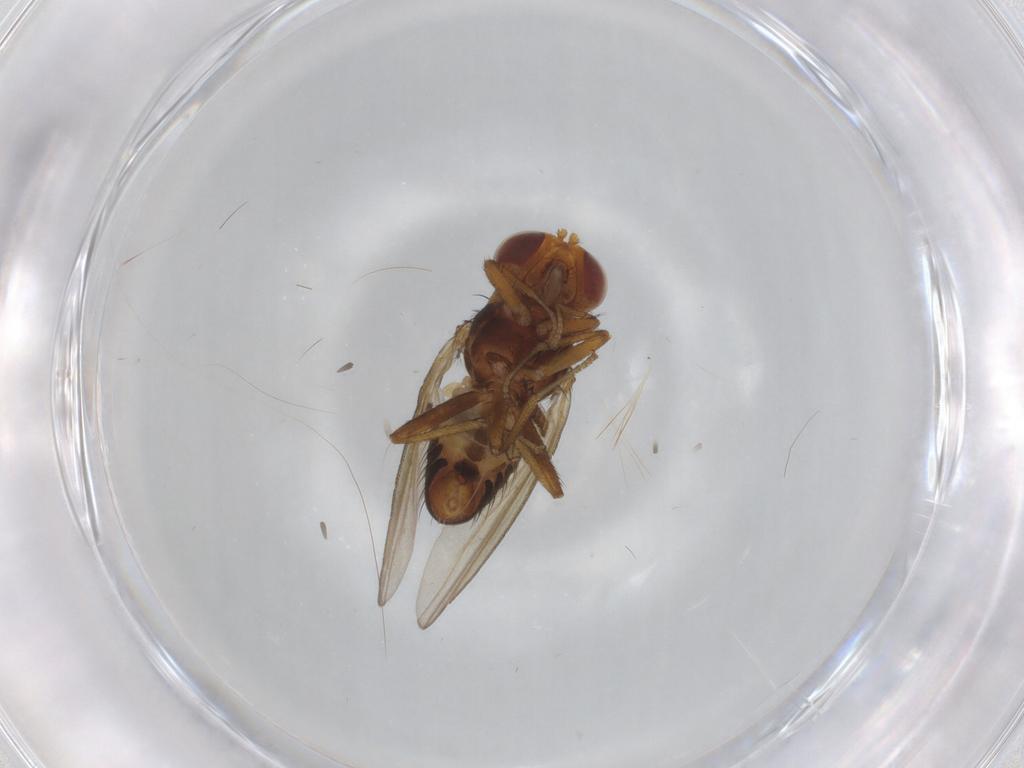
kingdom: Animalia
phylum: Arthropoda
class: Insecta
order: Diptera
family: Lauxaniidae
